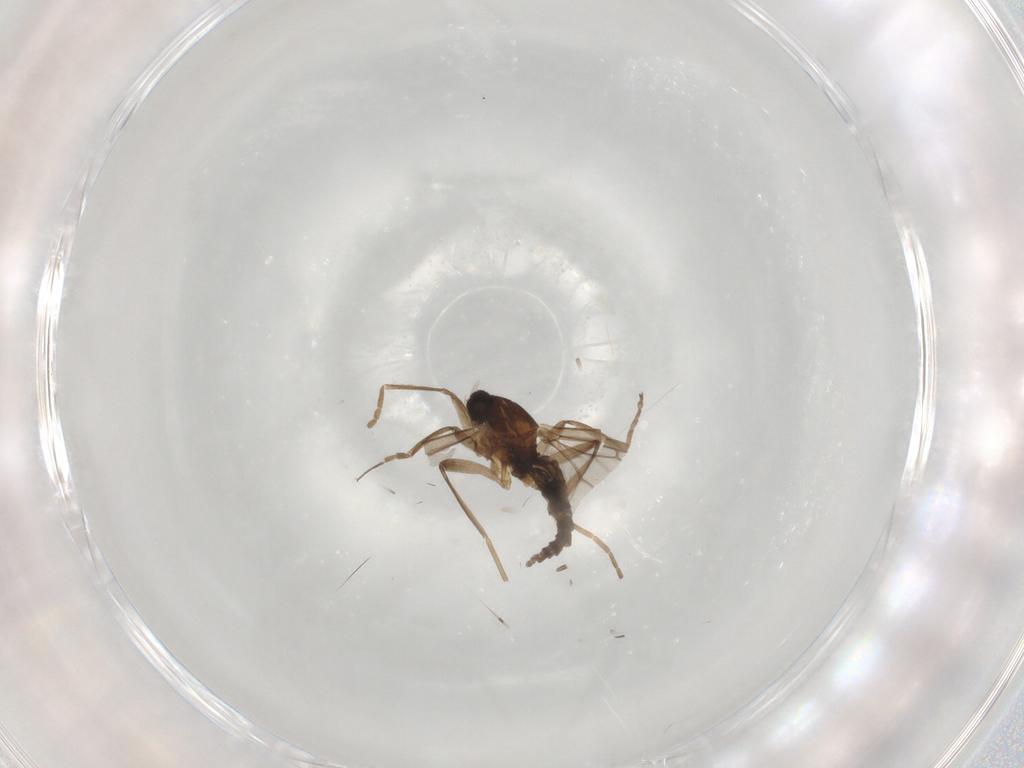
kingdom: Animalia
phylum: Arthropoda
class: Insecta
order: Diptera
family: Cecidomyiidae
